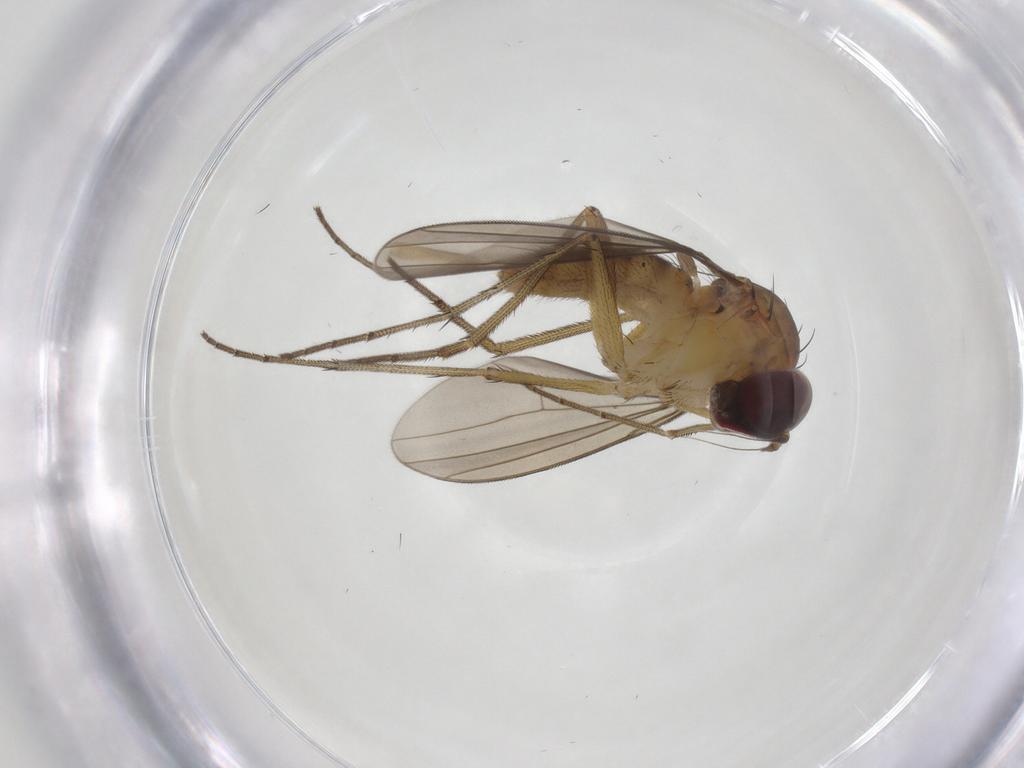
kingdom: Animalia
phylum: Arthropoda
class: Insecta
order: Diptera
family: Dolichopodidae
